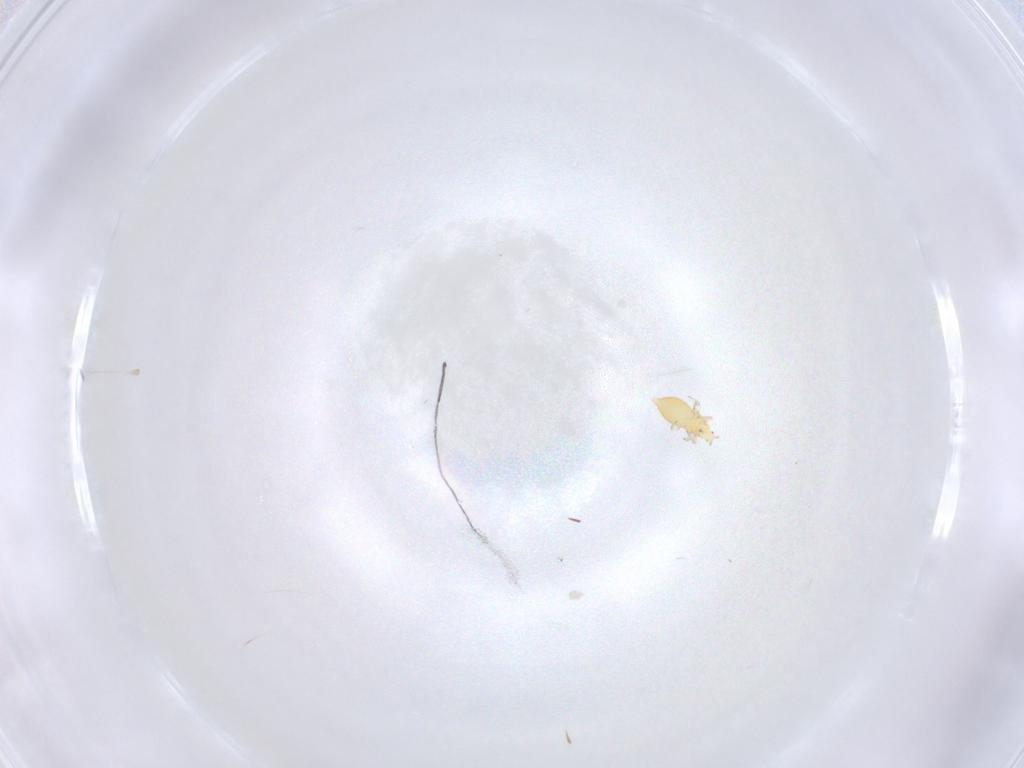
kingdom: Animalia
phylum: Arthropoda
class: Insecta
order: Thysanoptera
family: Thripidae
